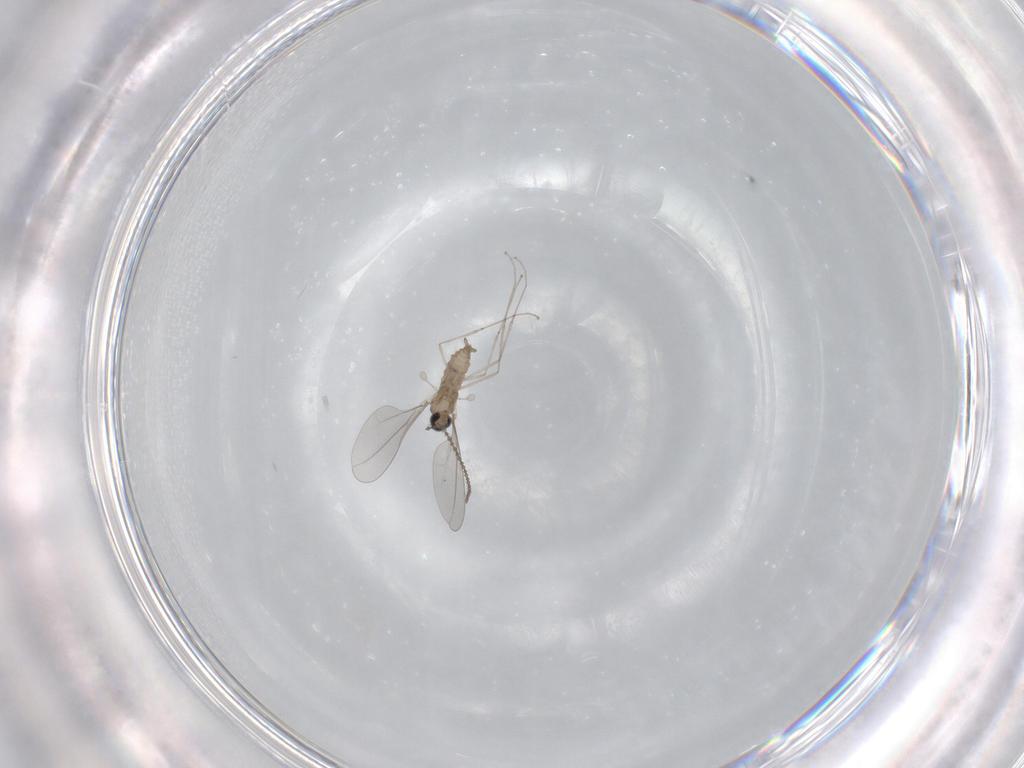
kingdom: Animalia
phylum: Arthropoda
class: Insecta
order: Diptera
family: Cecidomyiidae
